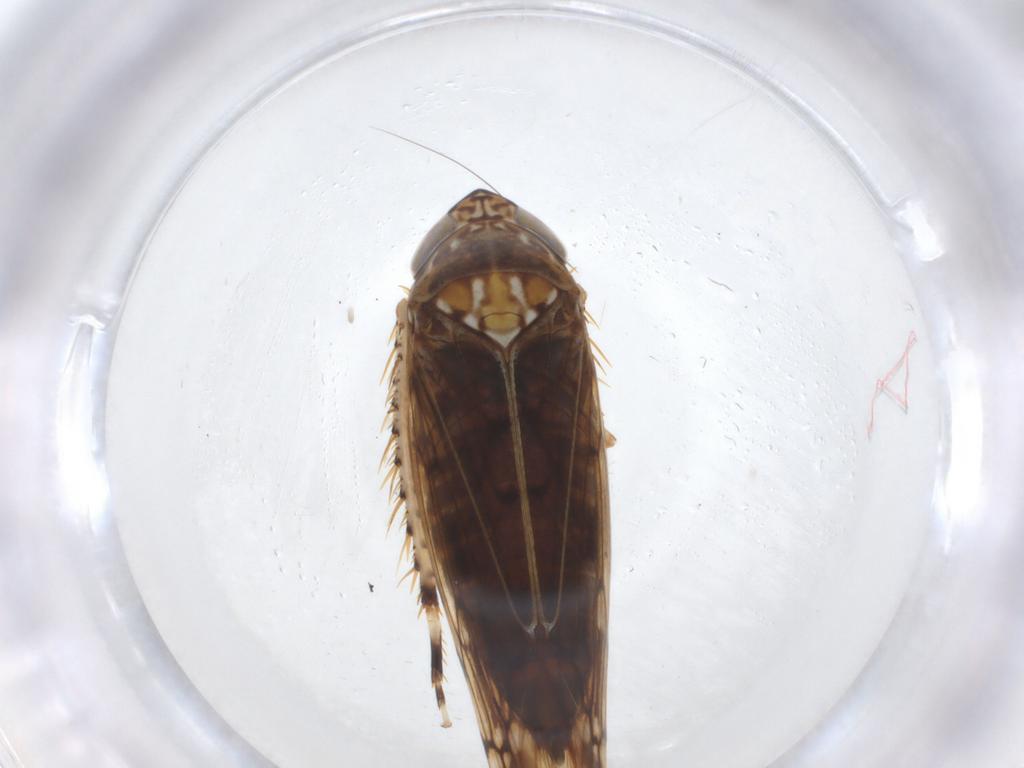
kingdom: Animalia
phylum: Arthropoda
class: Insecta
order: Hemiptera
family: Cicadellidae
